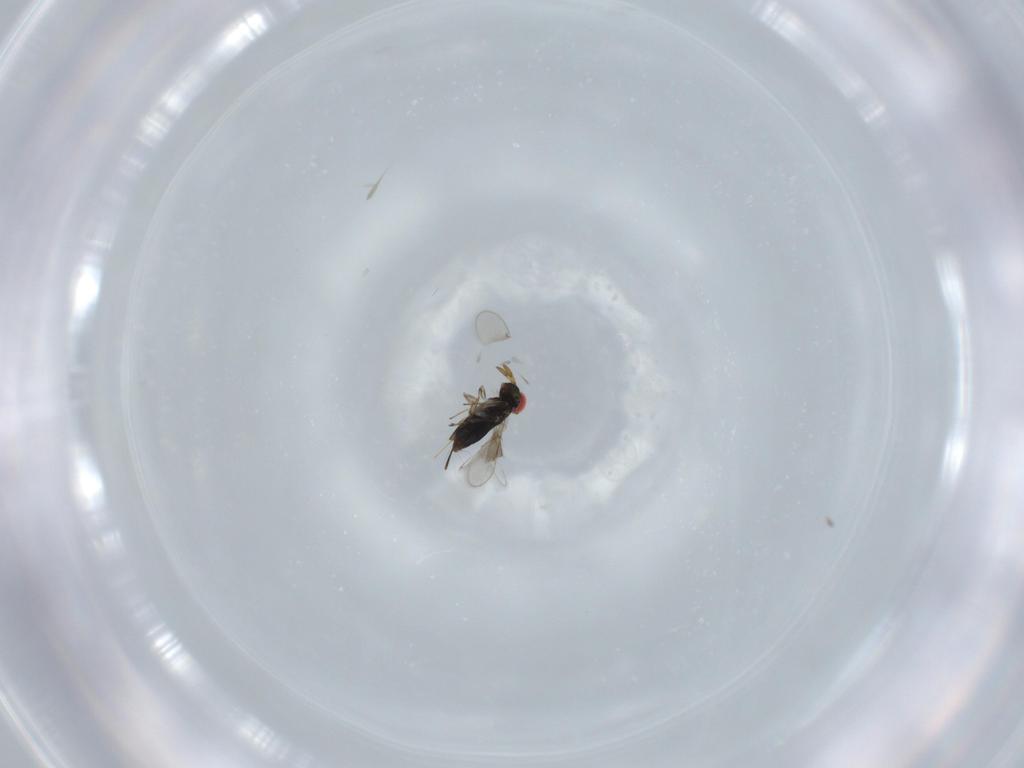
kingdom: Animalia
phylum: Arthropoda
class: Insecta
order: Hymenoptera
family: Azotidae
